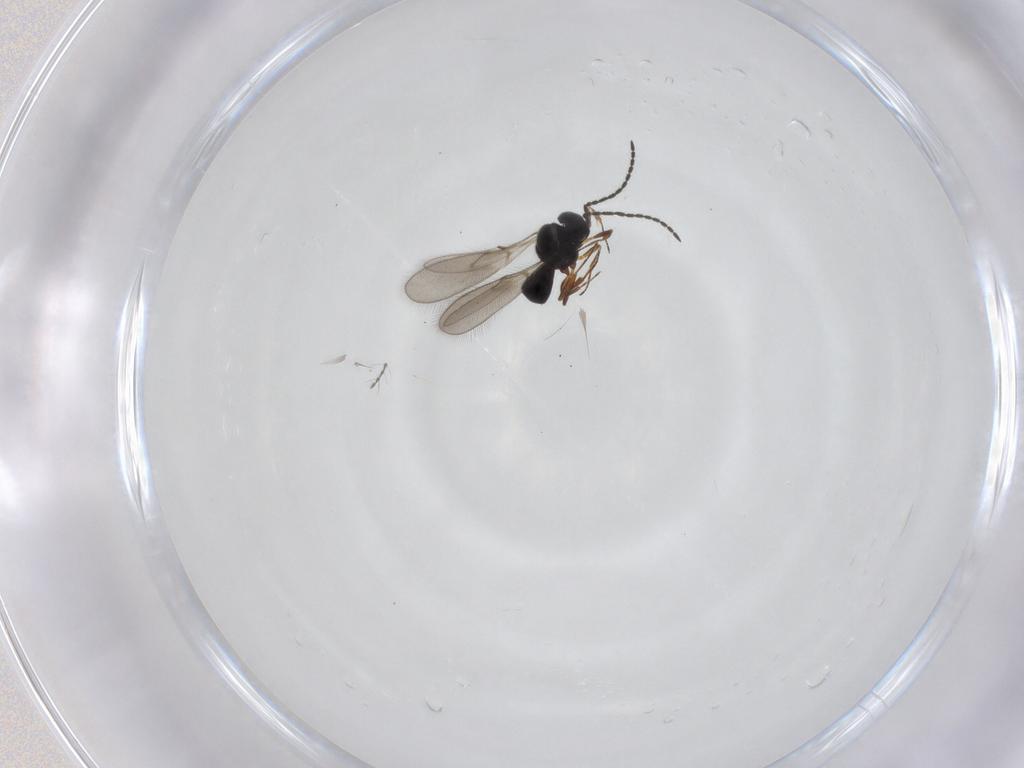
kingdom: Animalia
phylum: Arthropoda
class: Insecta
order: Hymenoptera
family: Scelionidae
